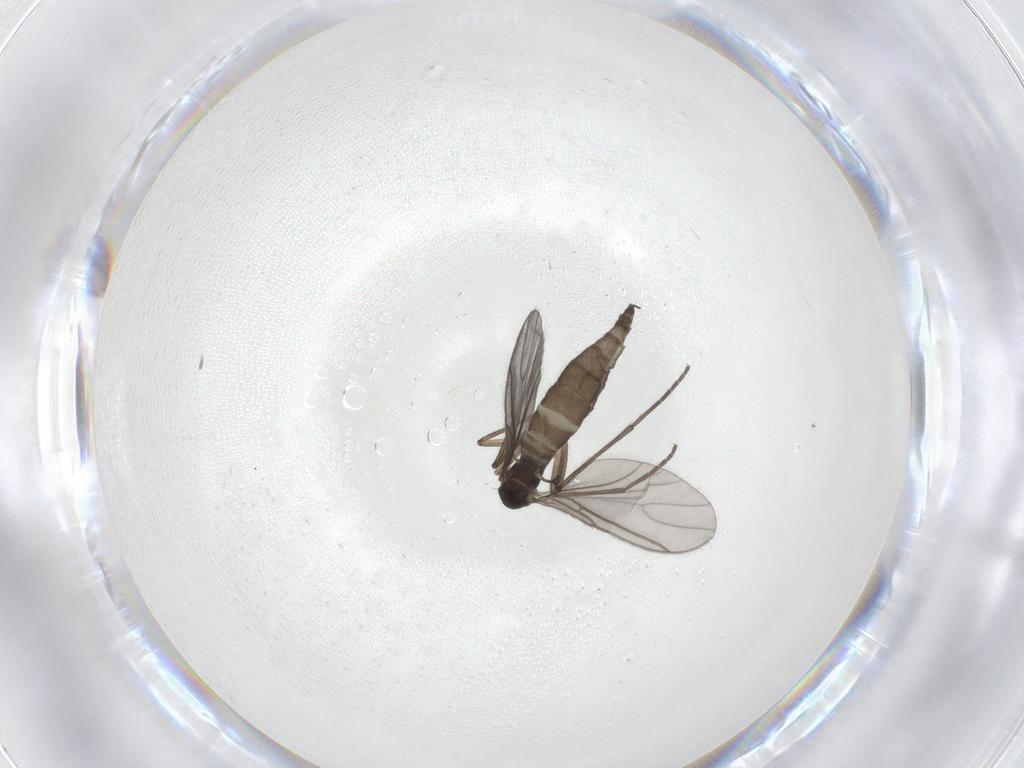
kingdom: Animalia
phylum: Arthropoda
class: Insecta
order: Diptera
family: Sciaridae
